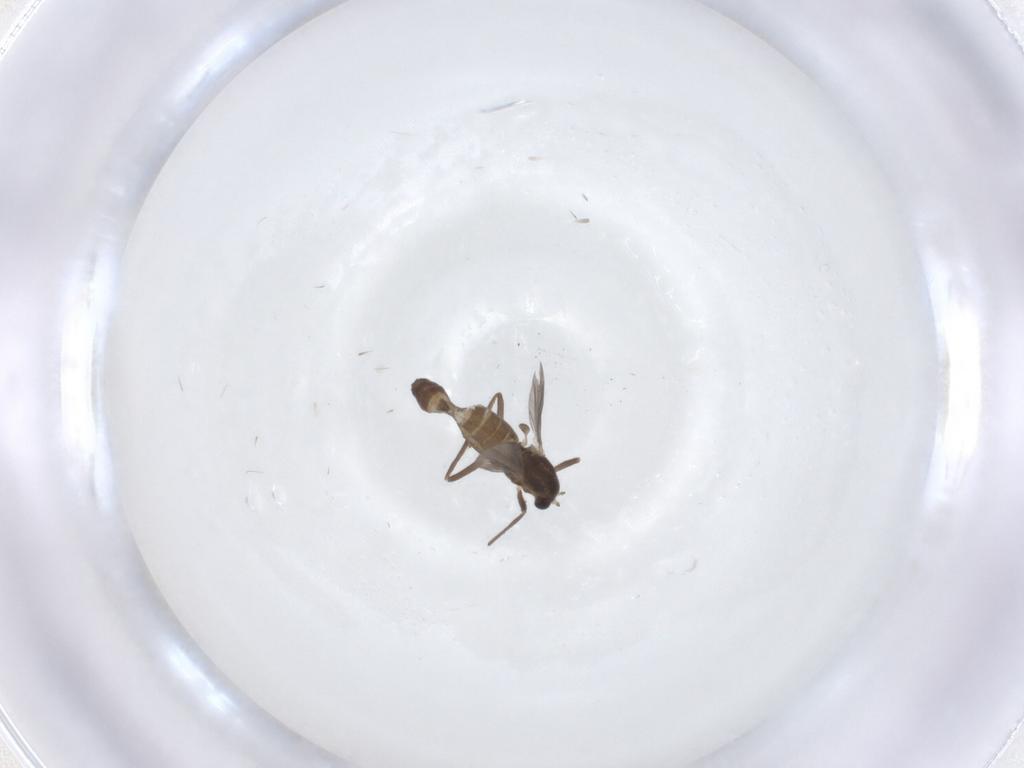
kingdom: Animalia
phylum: Arthropoda
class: Insecta
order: Diptera
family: Chironomidae
